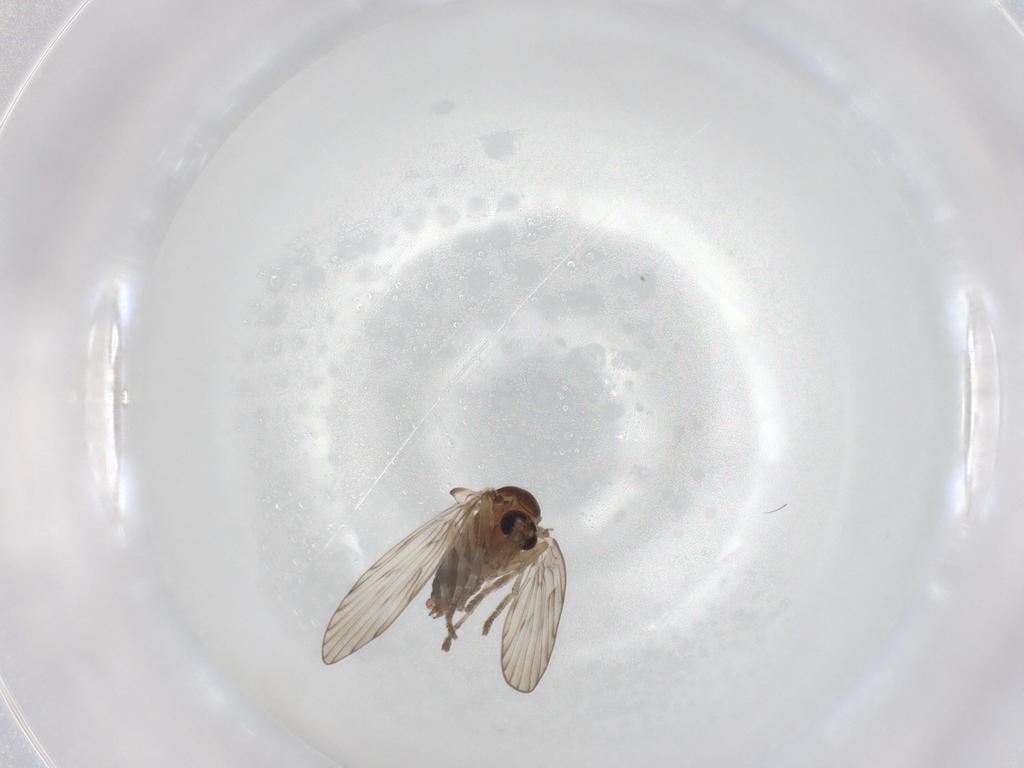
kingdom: Animalia
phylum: Arthropoda
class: Insecta
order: Diptera
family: Psychodidae
